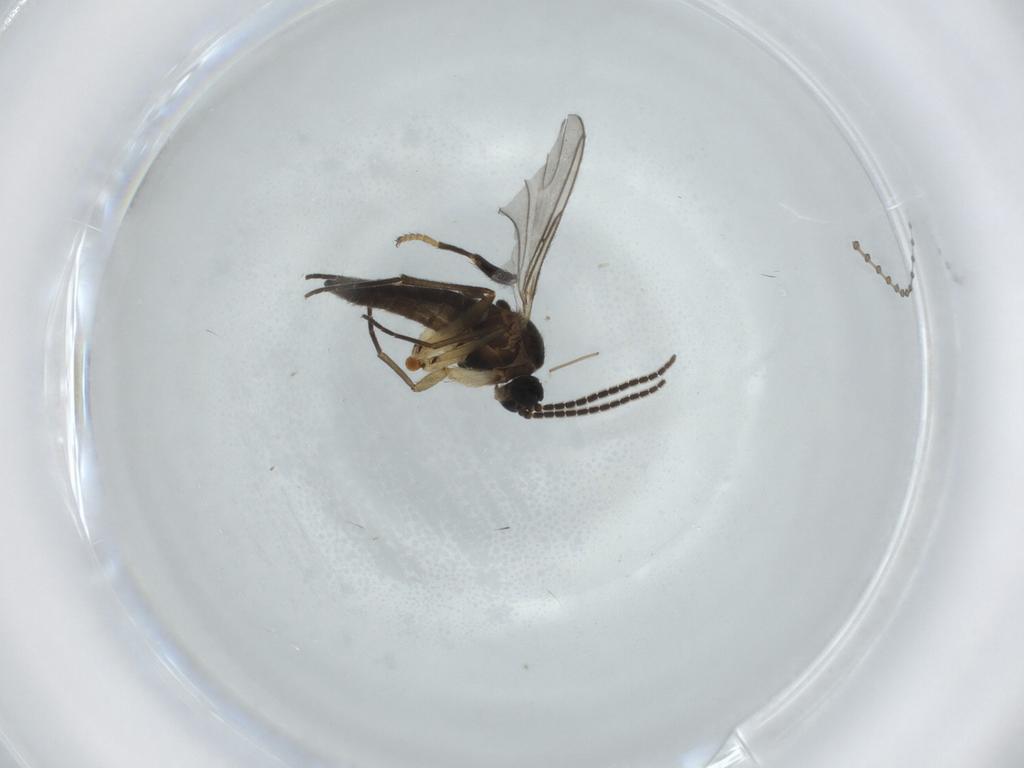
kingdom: Animalia
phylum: Arthropoda
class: Insecta
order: Diptera
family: Sciaridae
